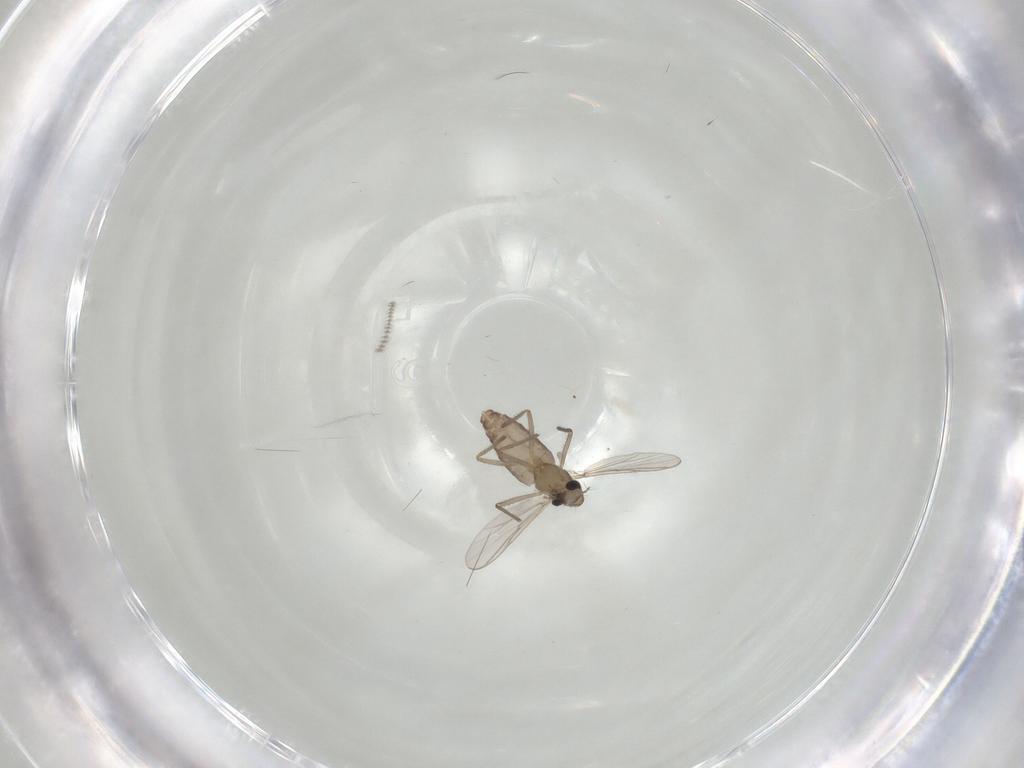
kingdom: Animalia
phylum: Arthropoda
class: Insecta
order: Diptera
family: Chironomidae
